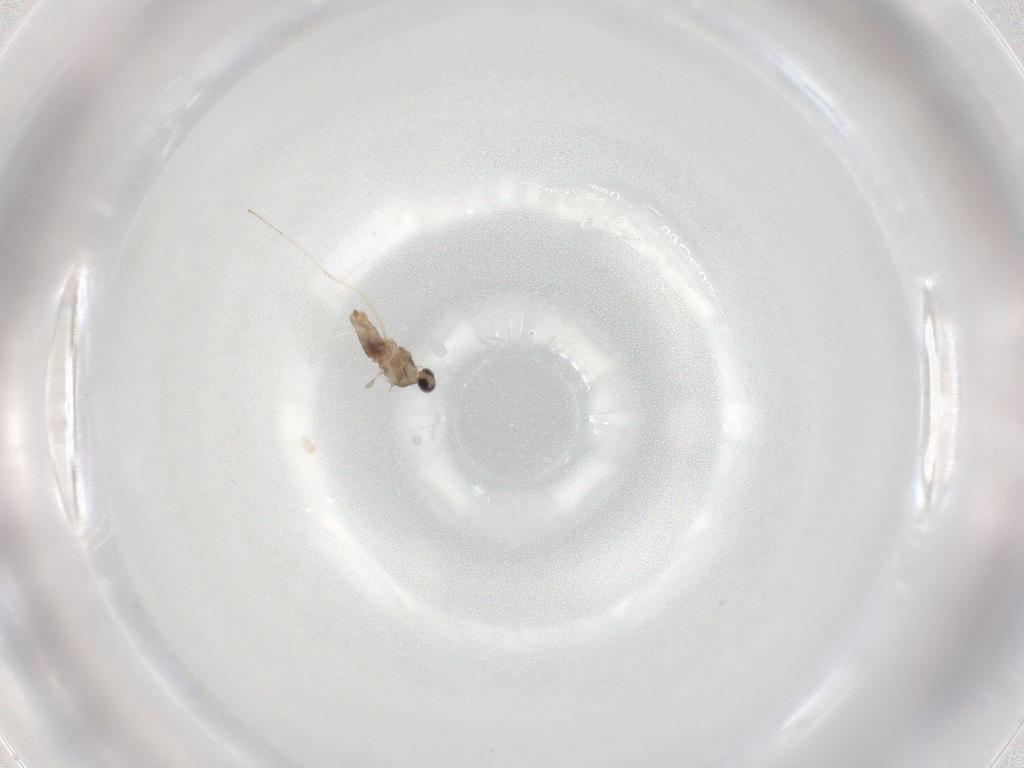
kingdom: Animalia
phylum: Arthropoda
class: Insecta
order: Diptera
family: Cecidomyiidae
